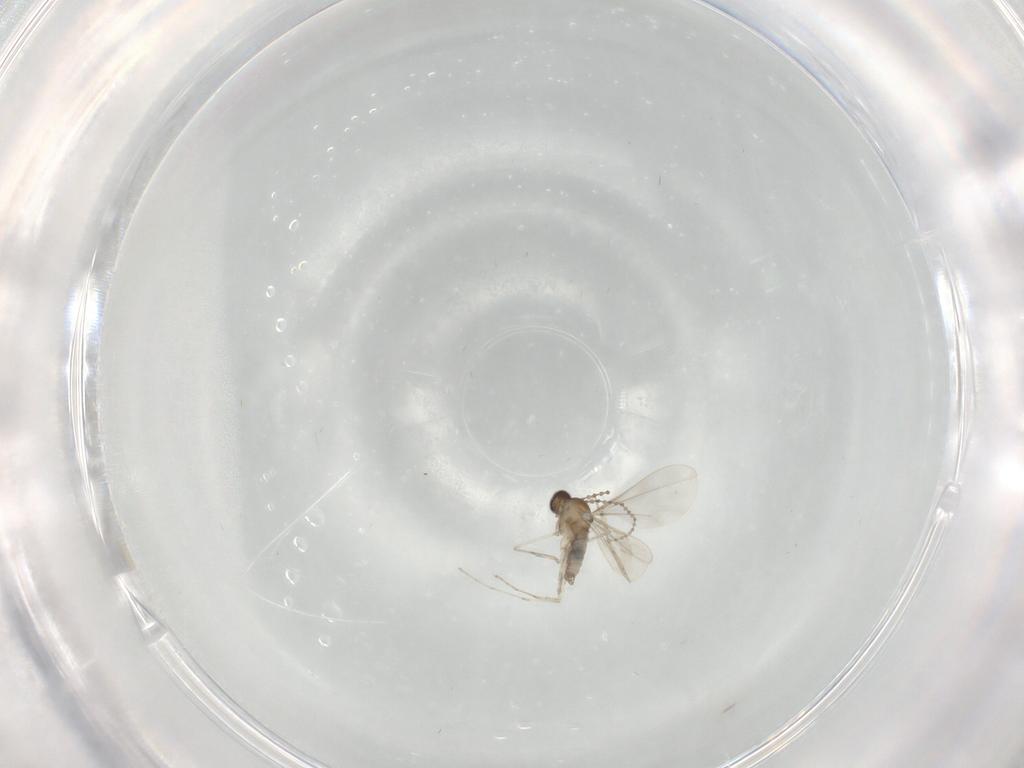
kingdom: Animalia
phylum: Arthropoda
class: Insecta
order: Diptera
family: Cecidomyiidae
